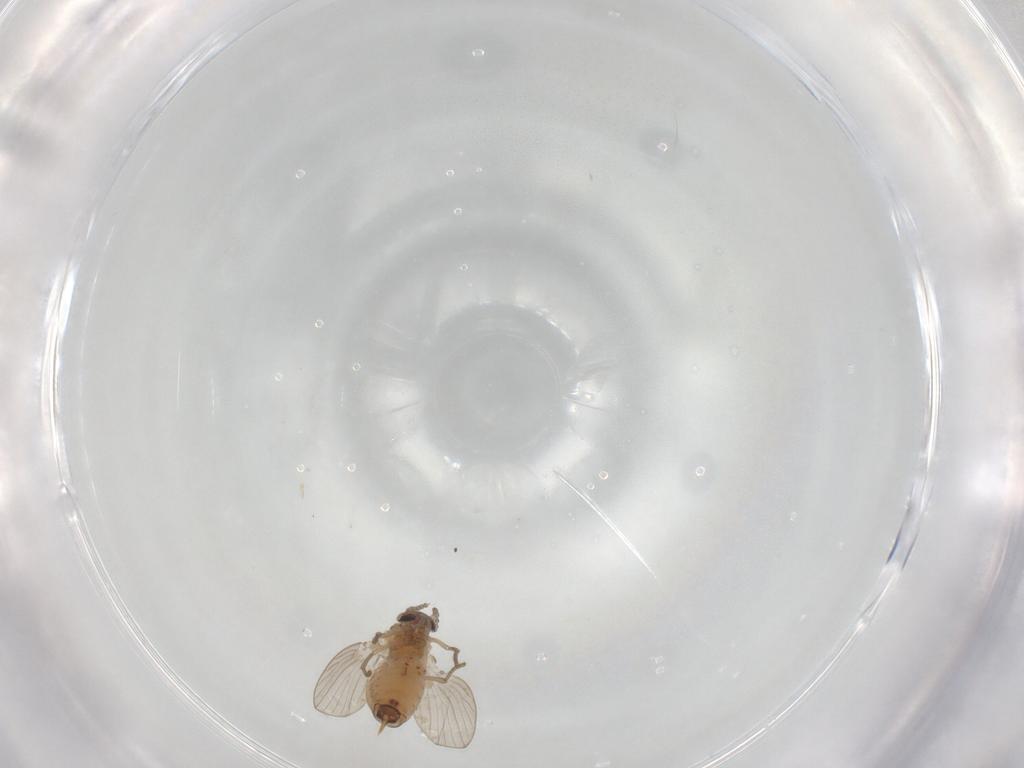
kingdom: Animalia
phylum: Arthropoda
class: Insecta
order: Diptera
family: Psychodidae
